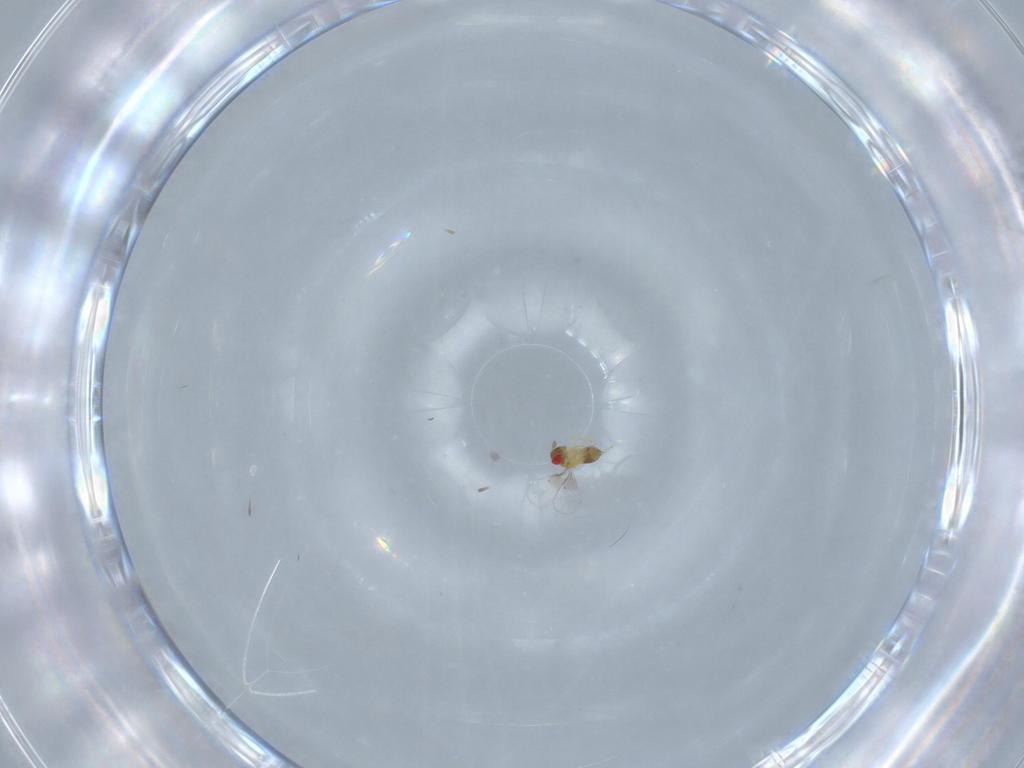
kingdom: Animalia
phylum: Arthropoda
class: Insecta
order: Hymenoptera
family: Trichogrammatidae
